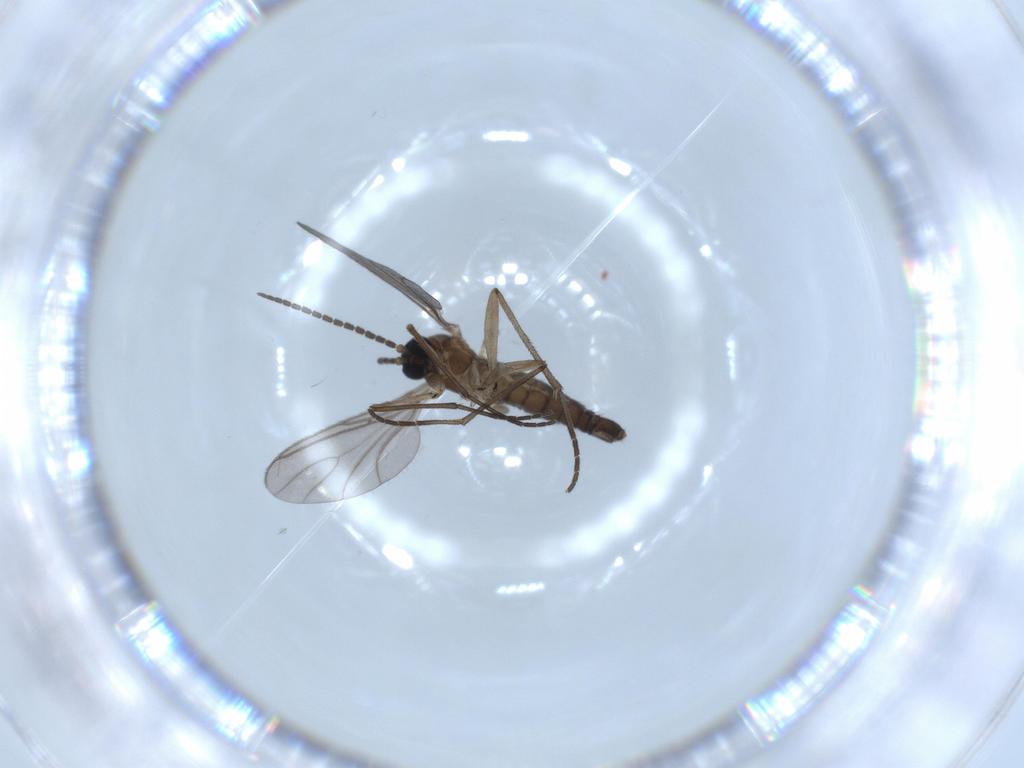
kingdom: Animalia
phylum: Arthropoda
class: Insecta
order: Diptera
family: Sciaridae
